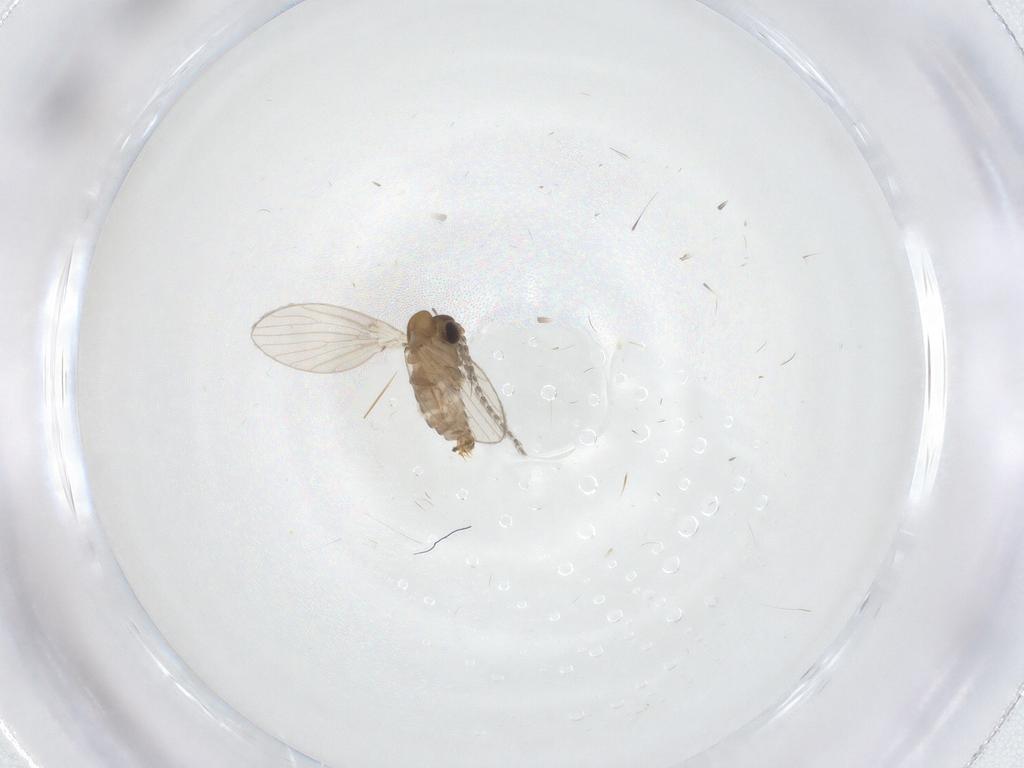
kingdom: Animalia
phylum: Arthropoda
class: Insecta
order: Diptera
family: Psychodidae
